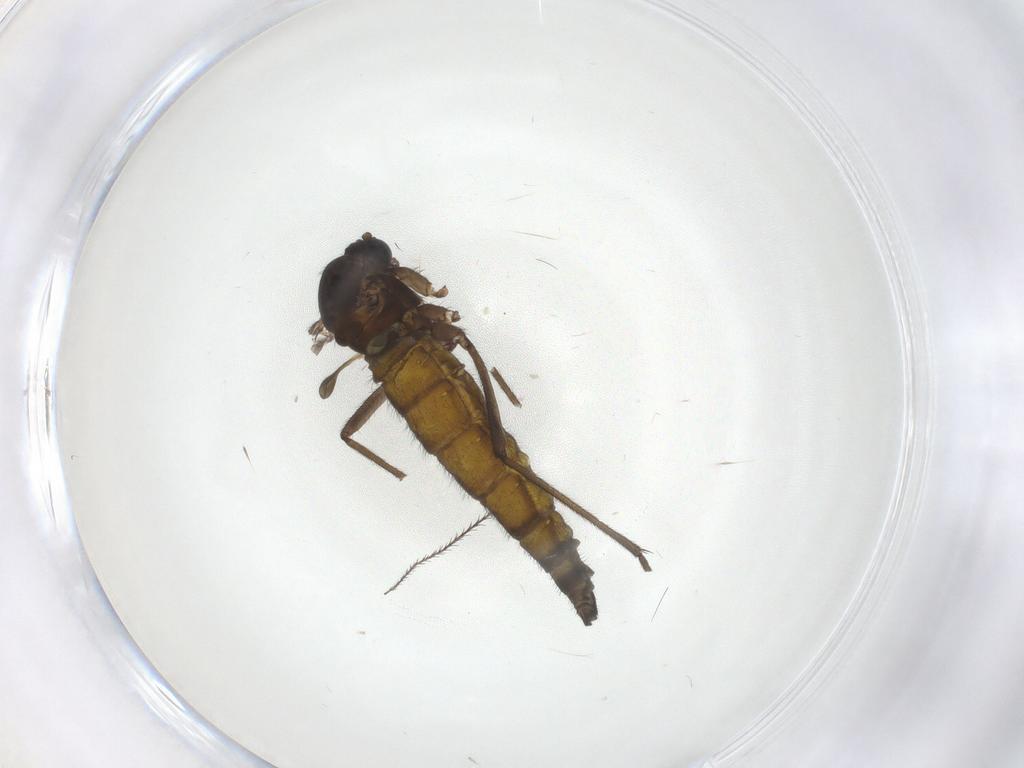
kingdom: Animalia
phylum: Arthropoda
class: Insecta
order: Diptera
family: Sciaridae
